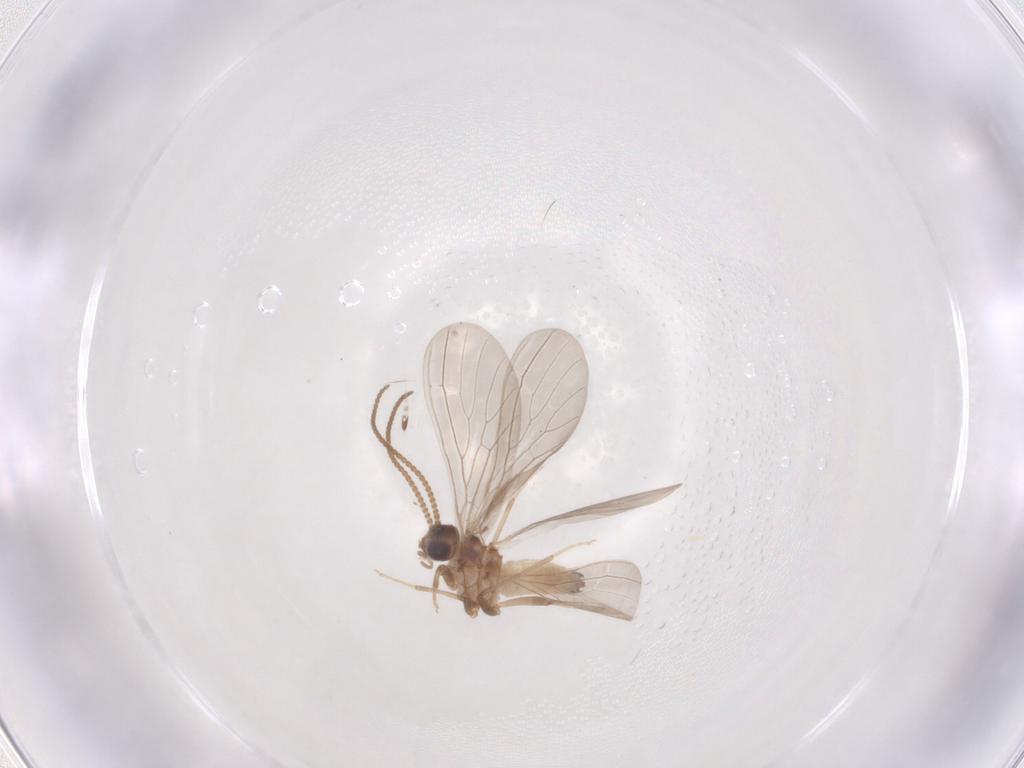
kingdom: Animalia
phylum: Arthropoda
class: Insecta
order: Neuroptera
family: Coniopterygidae
